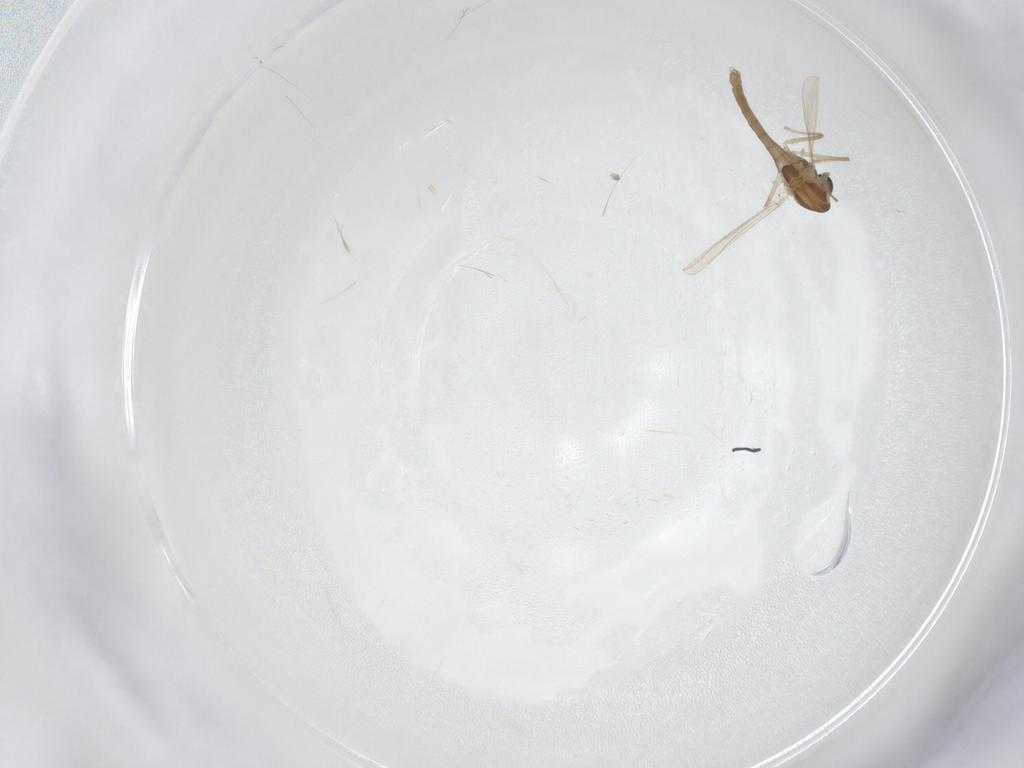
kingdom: Animalia
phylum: Arthropoda
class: Insecta
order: Diptera
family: Chironomidae
